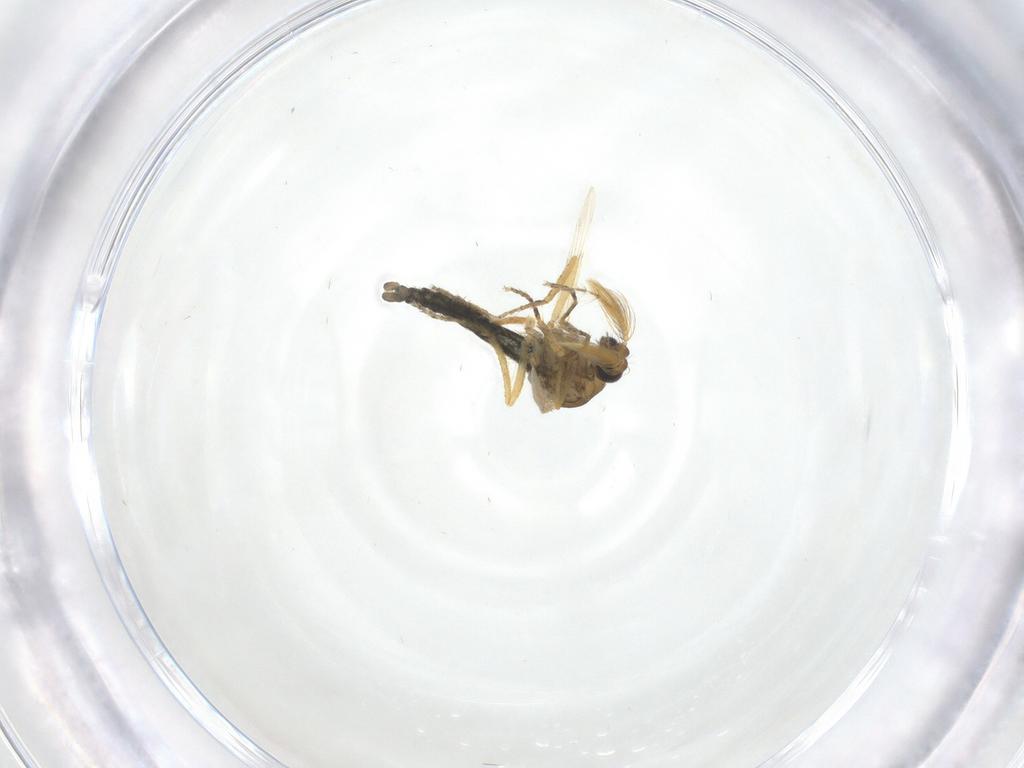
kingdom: Animalia
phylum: Arthropoda
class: Insecta
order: Diptera
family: Ceratopogonidae
